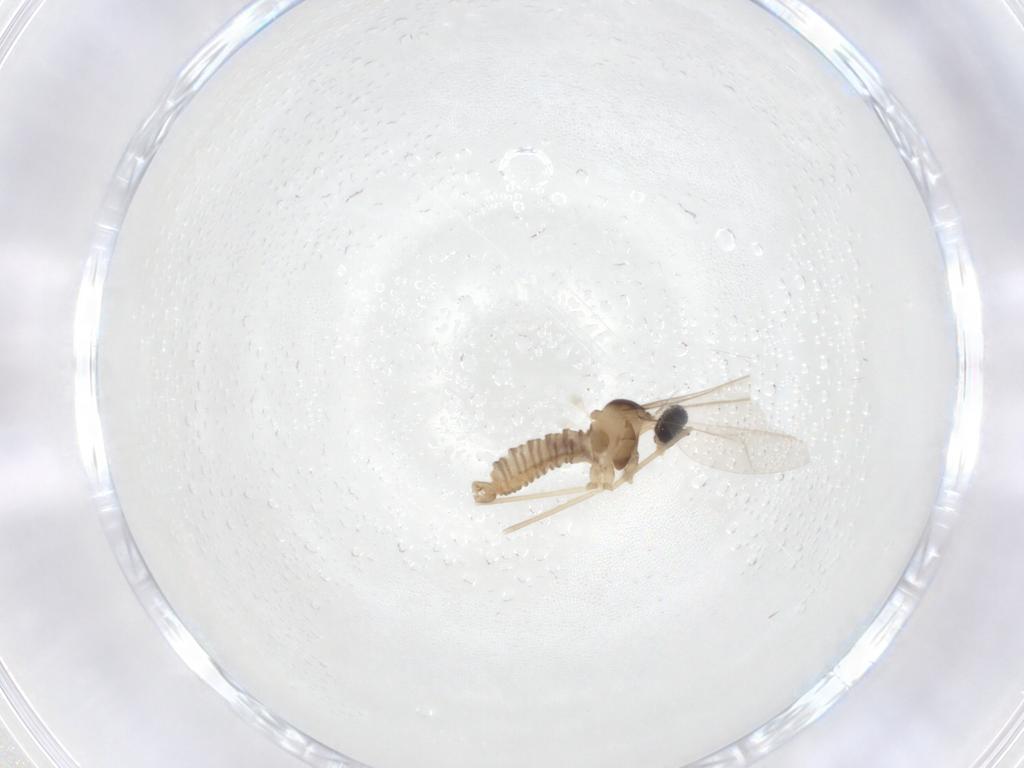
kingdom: Animalia
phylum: Arthropoda
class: Insecta
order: Diptera
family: Cecidomyiidae
